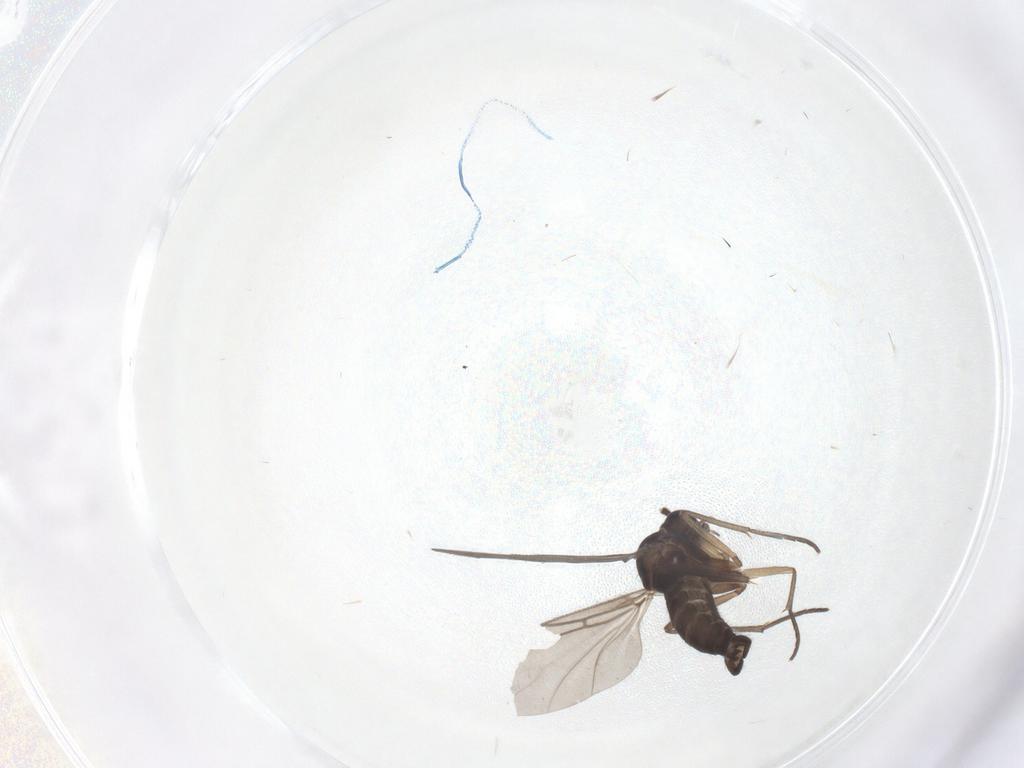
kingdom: Animalia
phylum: Arthropoda
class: Insecta
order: Diptera
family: Sciaridae
